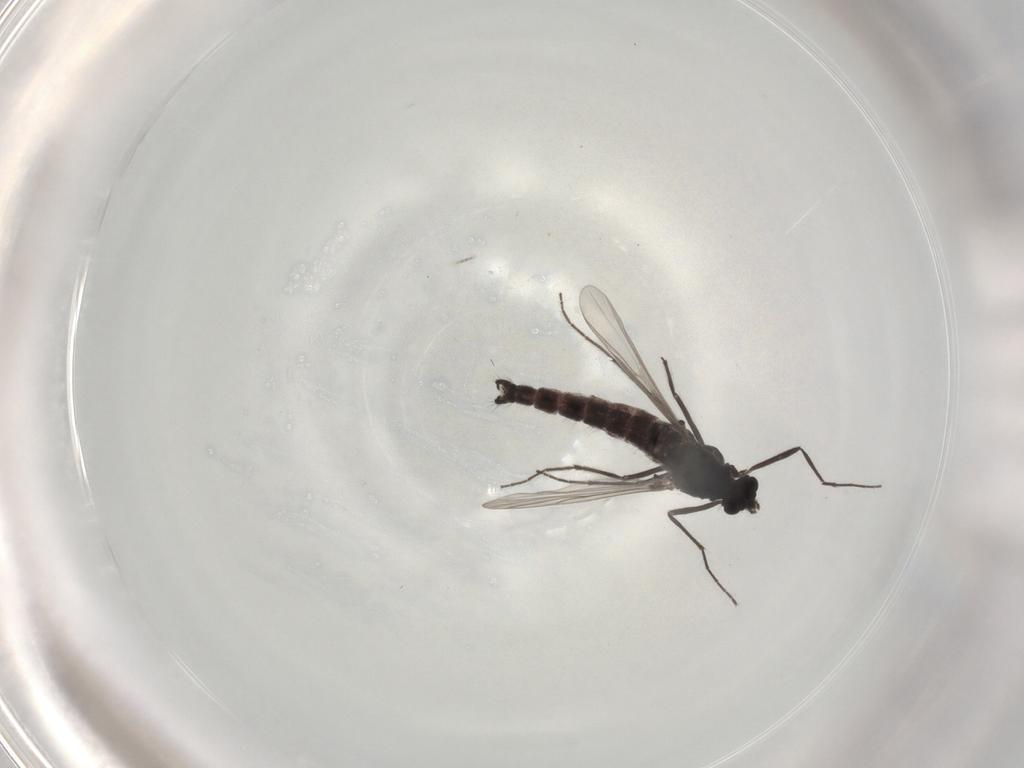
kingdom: Animalia
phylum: Arthropoda
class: Insecta
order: Diptera
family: Chironomidae
